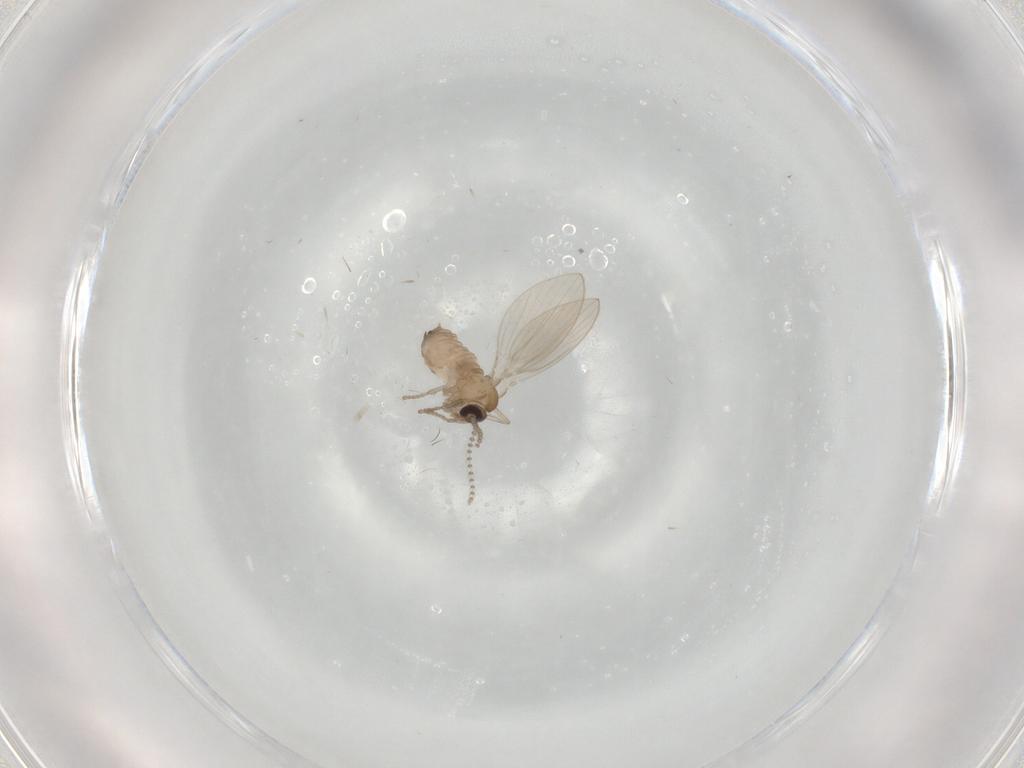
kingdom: Animalia
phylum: Arthropoda
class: Insecta
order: Diptera
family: Psychodidae
